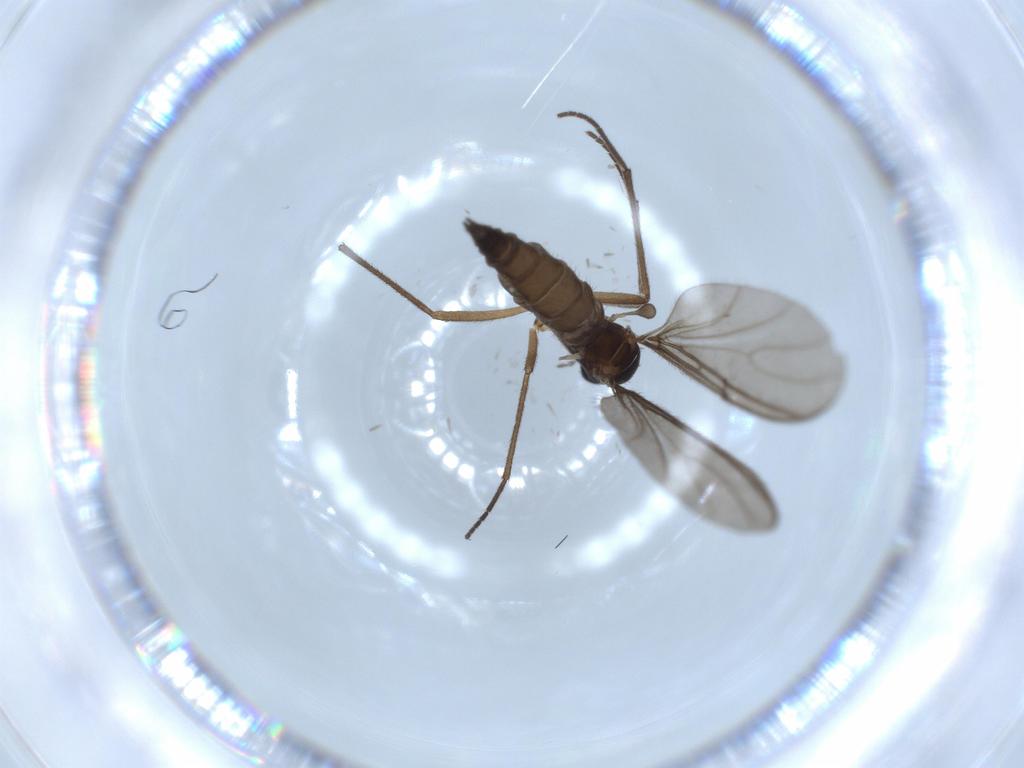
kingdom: Animalia
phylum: Arthropoda
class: Insecta
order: Diptera
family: Sciaridae
